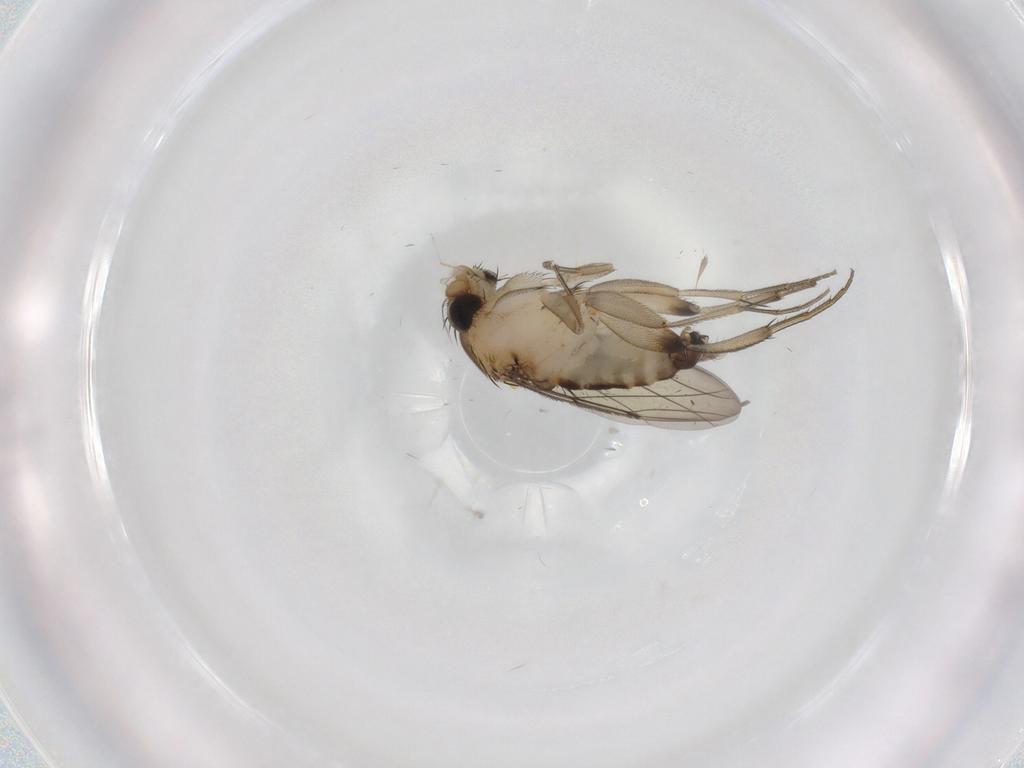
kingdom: Animalia
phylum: Arthropoda
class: Insecta
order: Diptera
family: Phoridae
